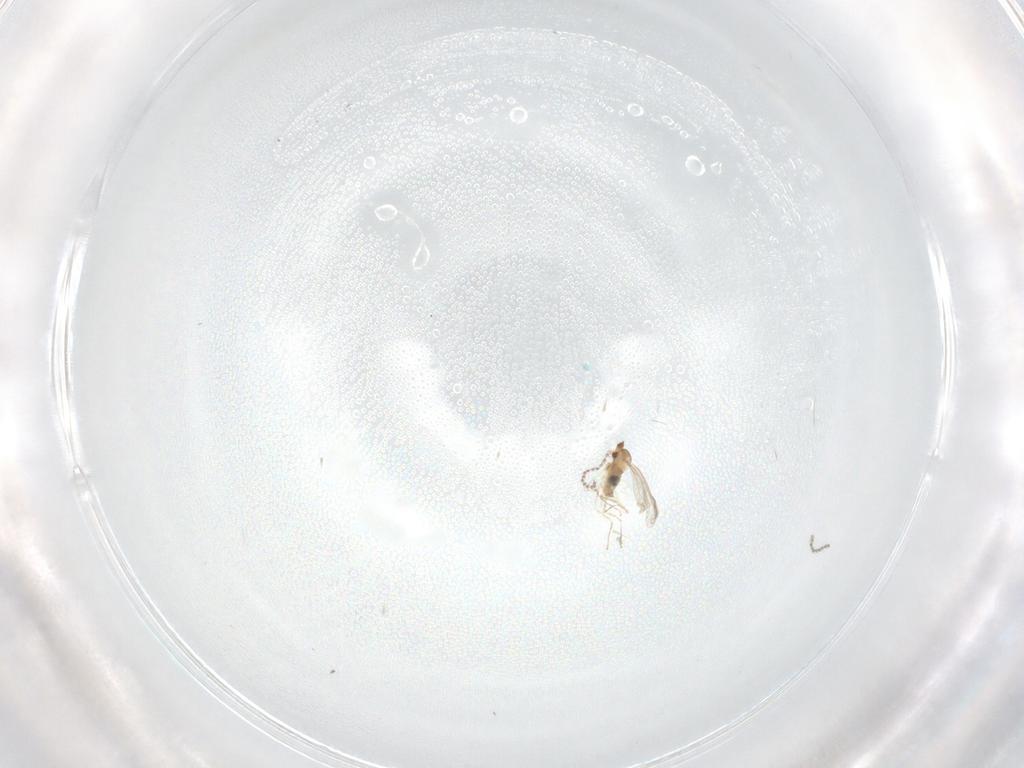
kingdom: Animalia
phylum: Arthropoda
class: Insecta
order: Diptera
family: Cecidomyiidae
